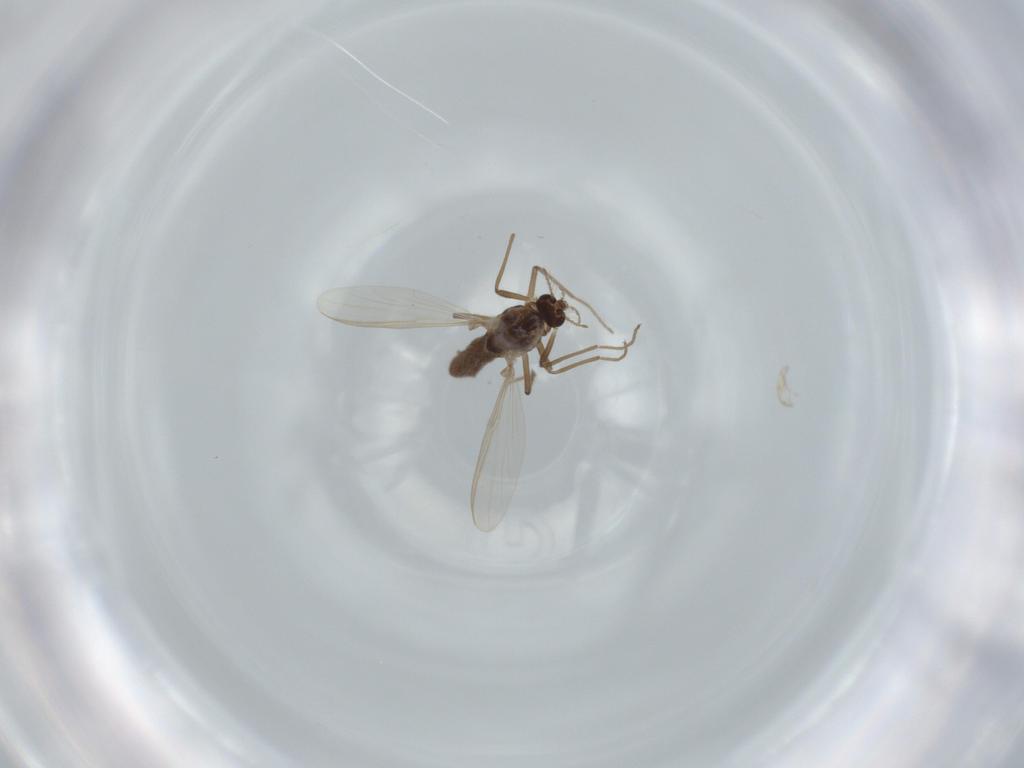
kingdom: Animalia
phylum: Arthropoda
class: Insecta
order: Diptera
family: Chironomidae
